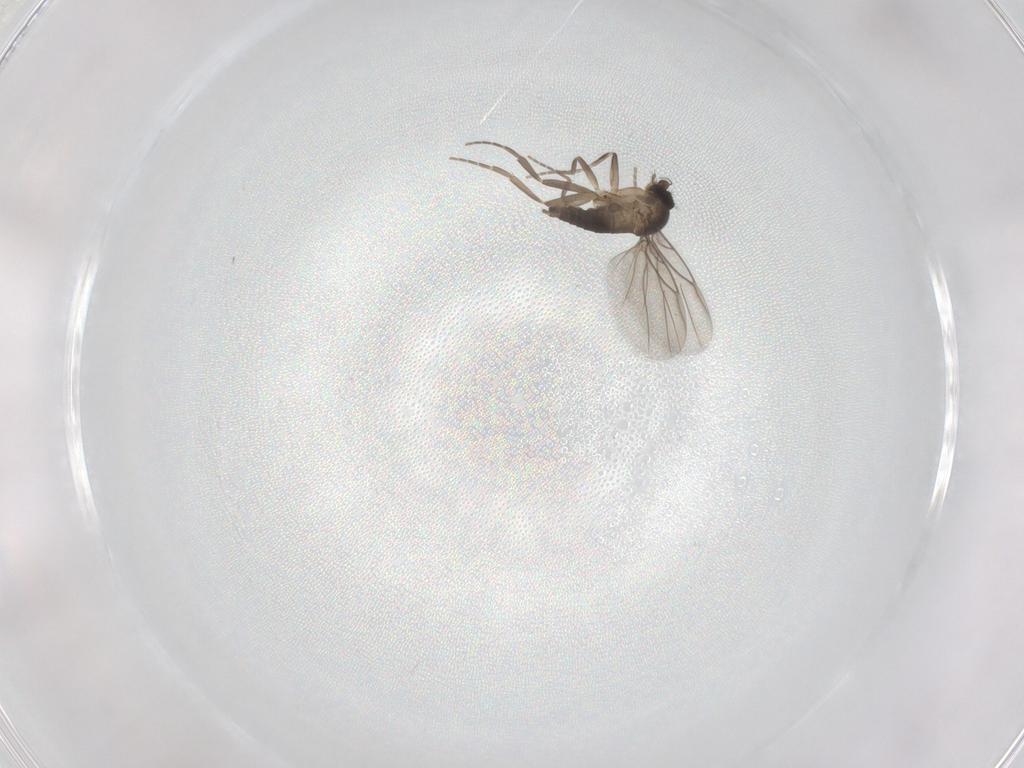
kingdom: Animalia
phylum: Arthropoda
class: Insecta
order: Diptera
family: Phoridae
